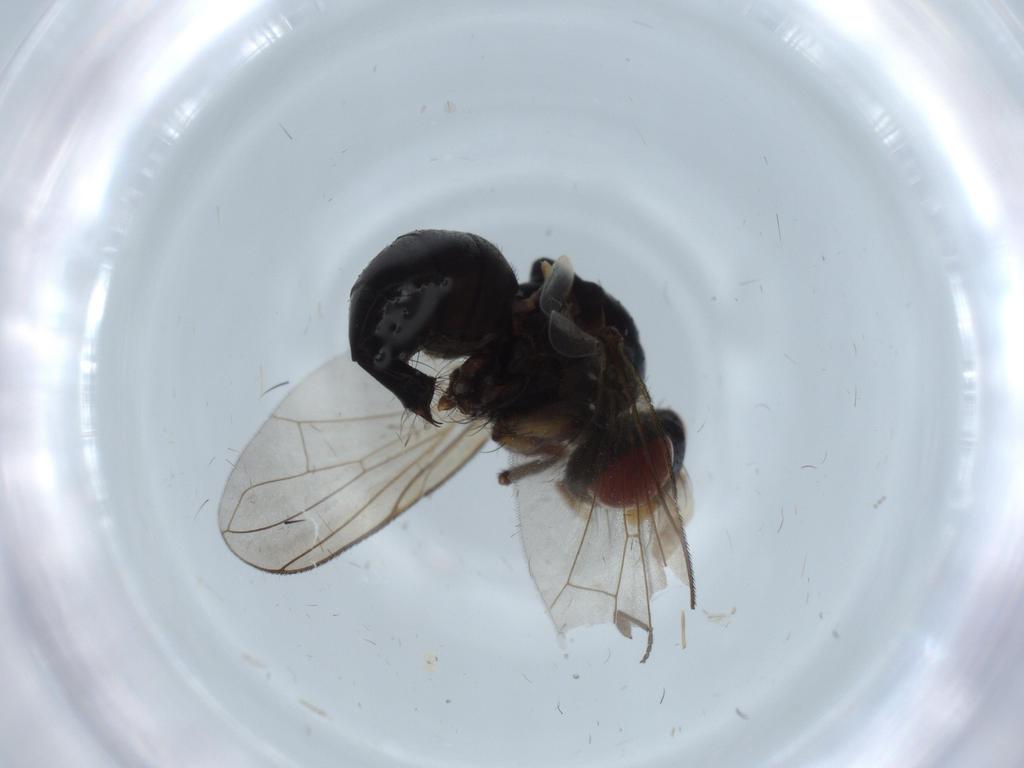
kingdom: Animalia
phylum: Arthropoda
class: Insecta
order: Diptera
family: Tachinidae
